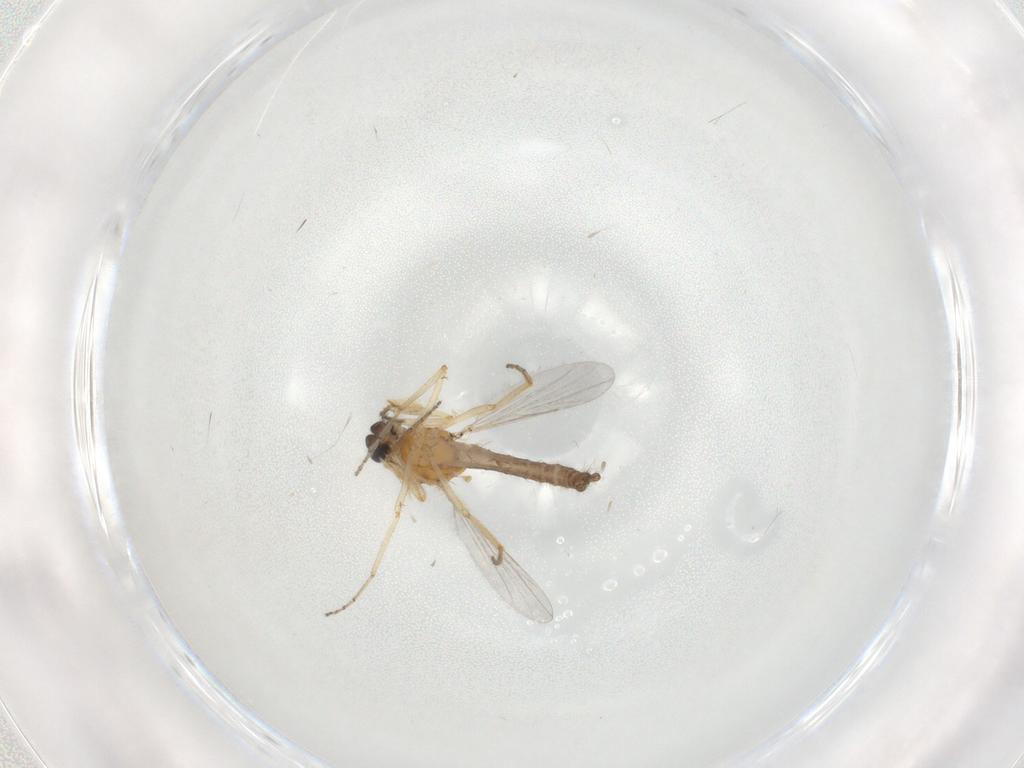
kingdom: Animalia
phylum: Arthropoda
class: Insecta
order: Diptera
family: Ceratopogonidae
